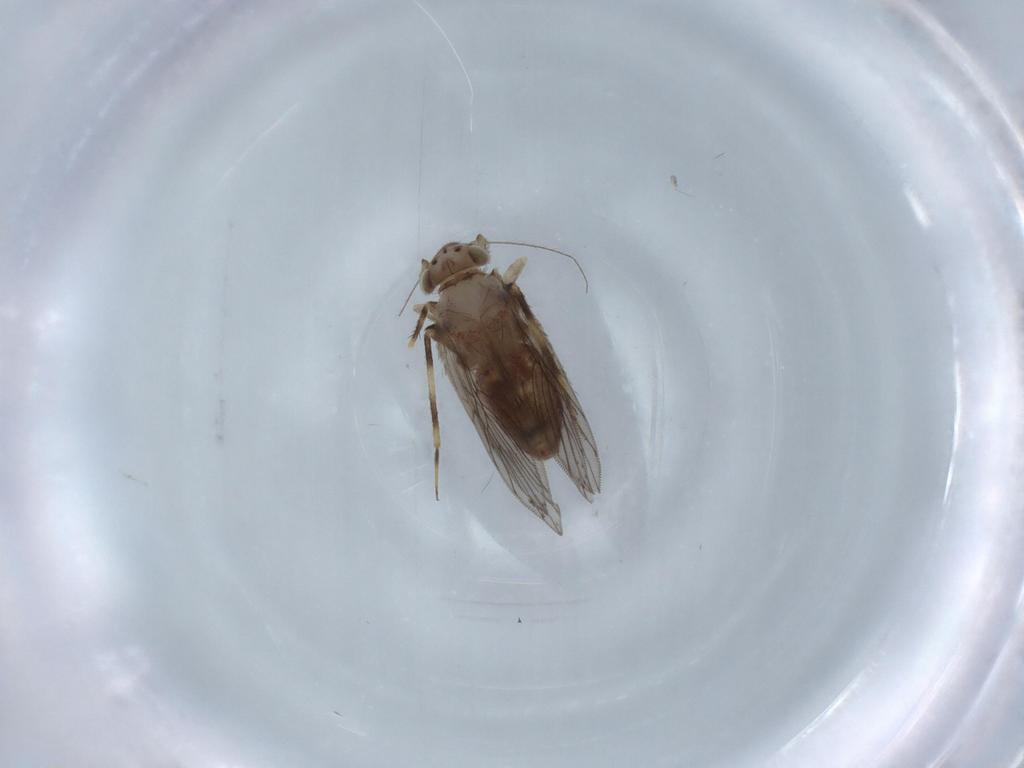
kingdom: Animalia
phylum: Arthropoda
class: Insecta
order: Psocodea
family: Lepidopsocidae
